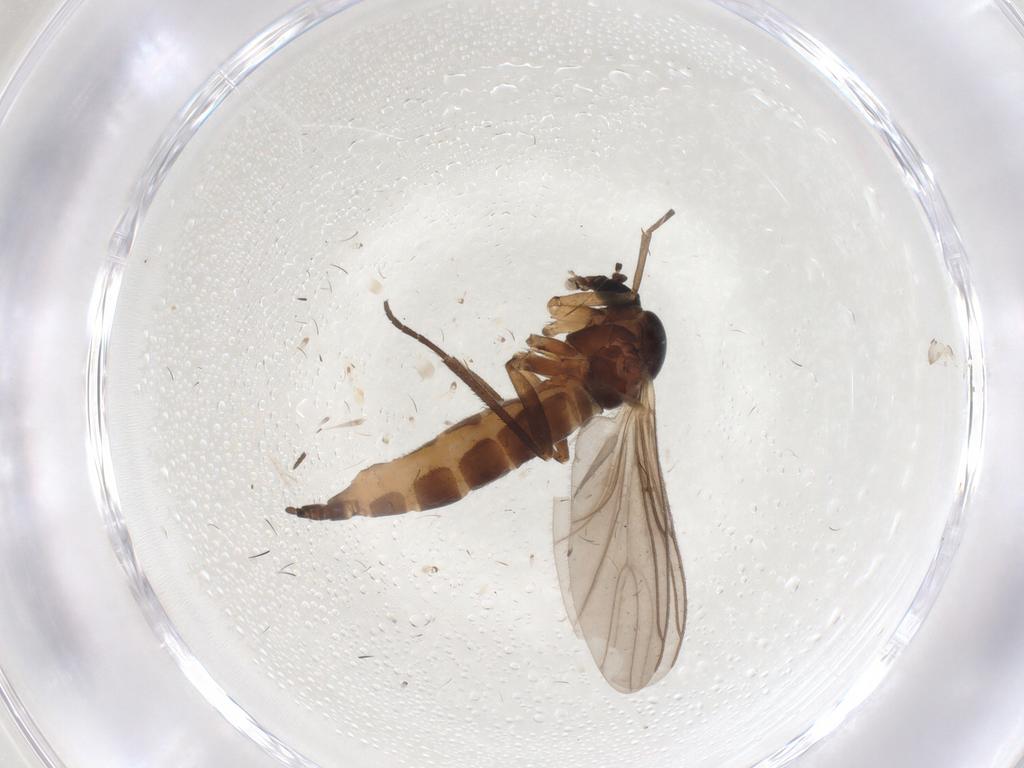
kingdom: Animalia
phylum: Arthropoda
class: Insecta
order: Diptera
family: Sciaridae
